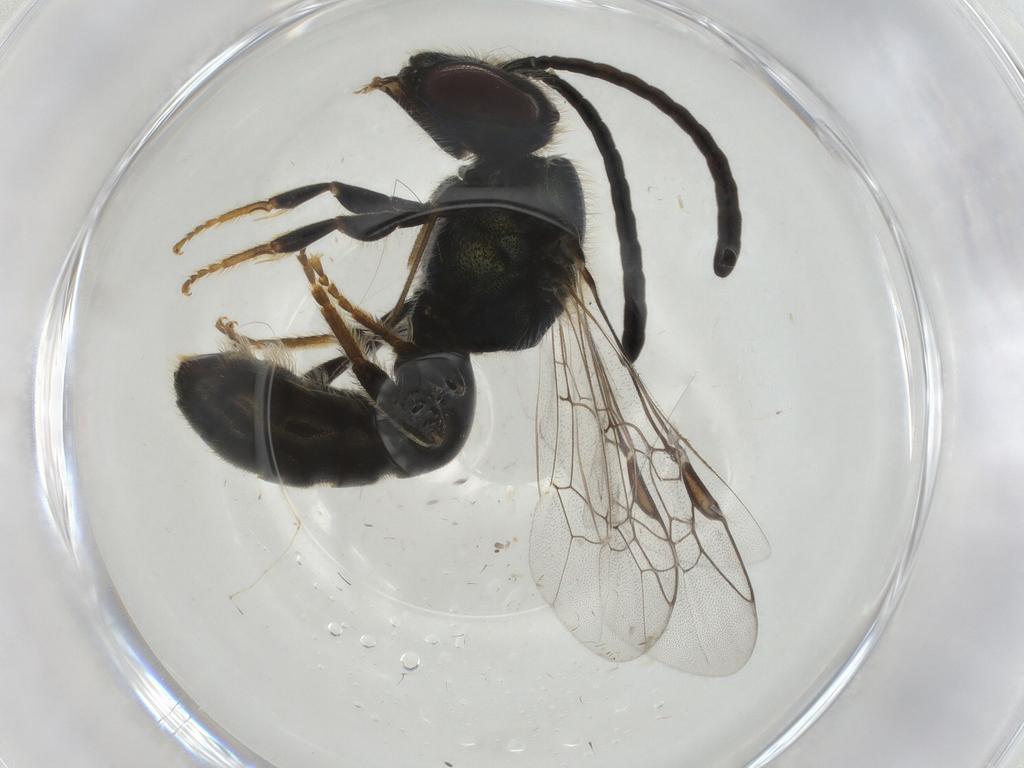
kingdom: Animalia
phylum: Arthropoda
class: Insecta
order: Hymenoptera
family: Halictidae
